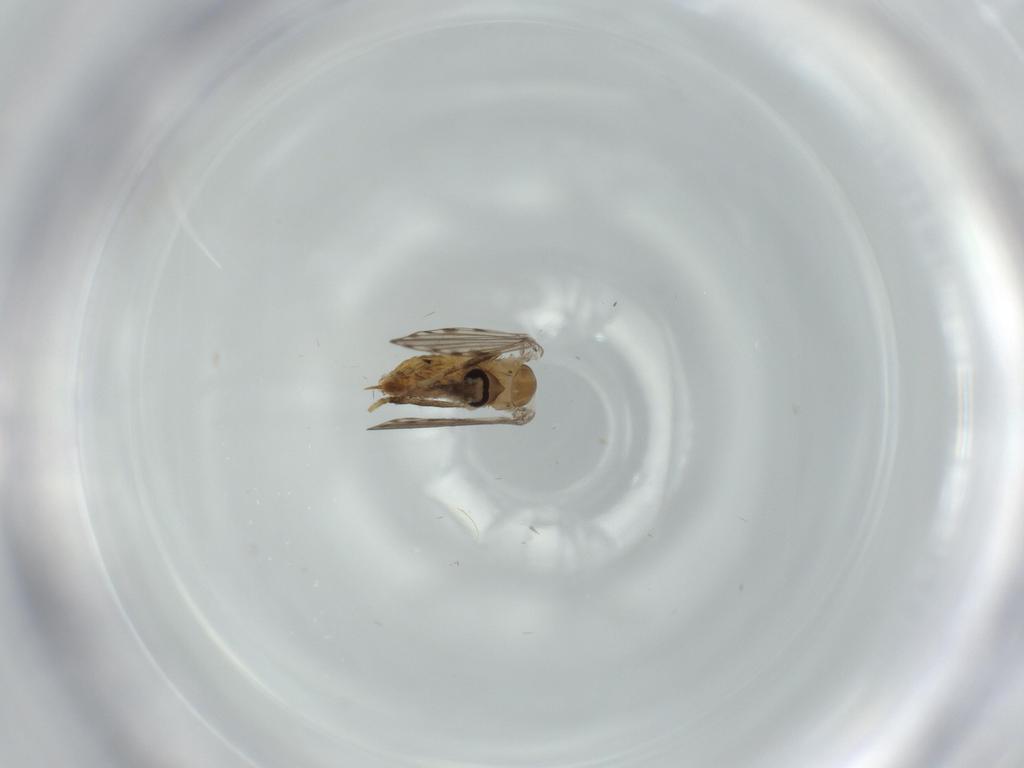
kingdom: Animalia
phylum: Arthropoda
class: Insecta
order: Diptera
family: Psychodidae
